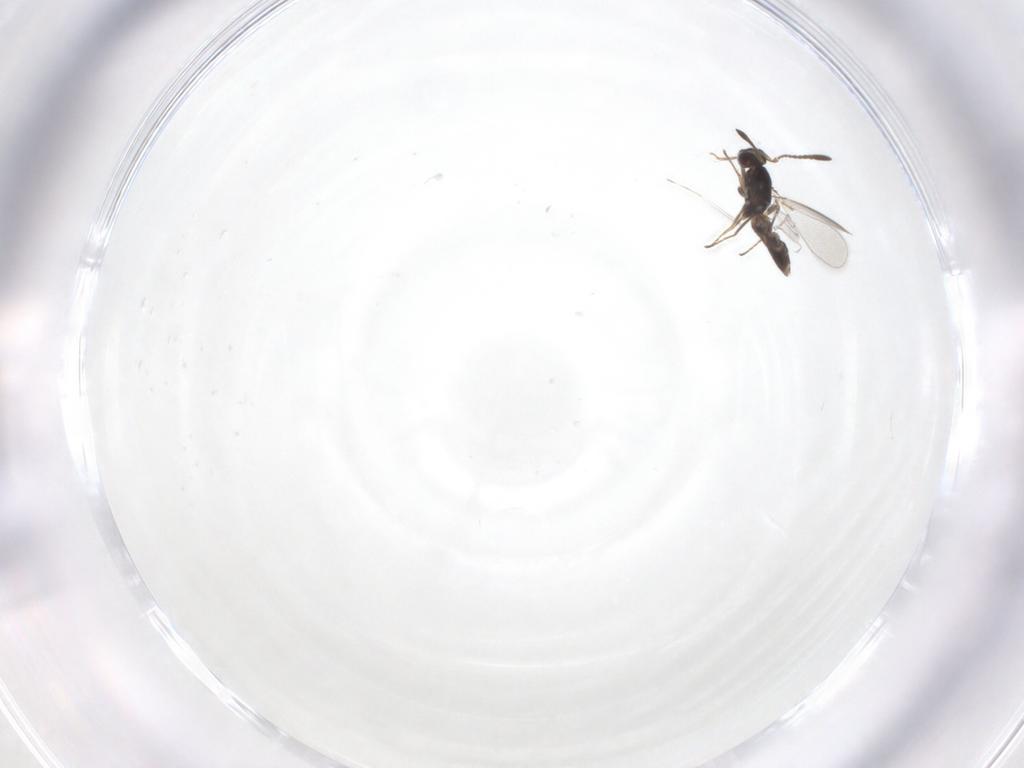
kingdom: Animalia
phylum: Arthropoda
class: Insecta
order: Hymenoptera
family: Mymaridae
